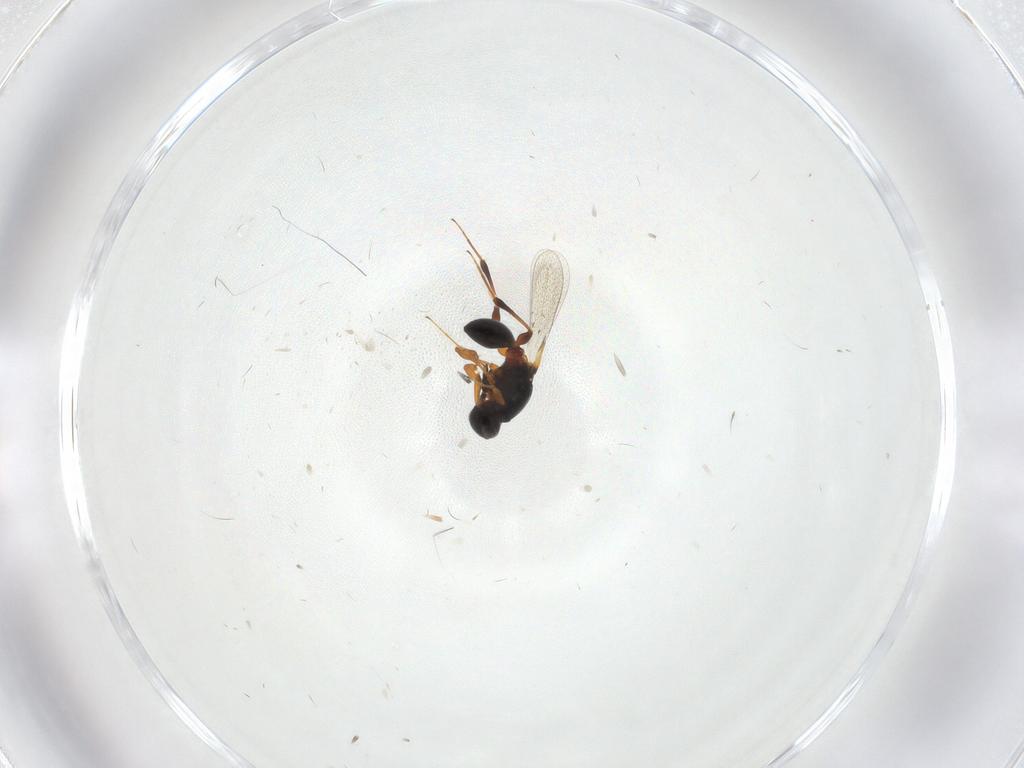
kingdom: Animalia
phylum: Arthropoda
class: Insecta
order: Hymenoptera
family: Platygastridae
